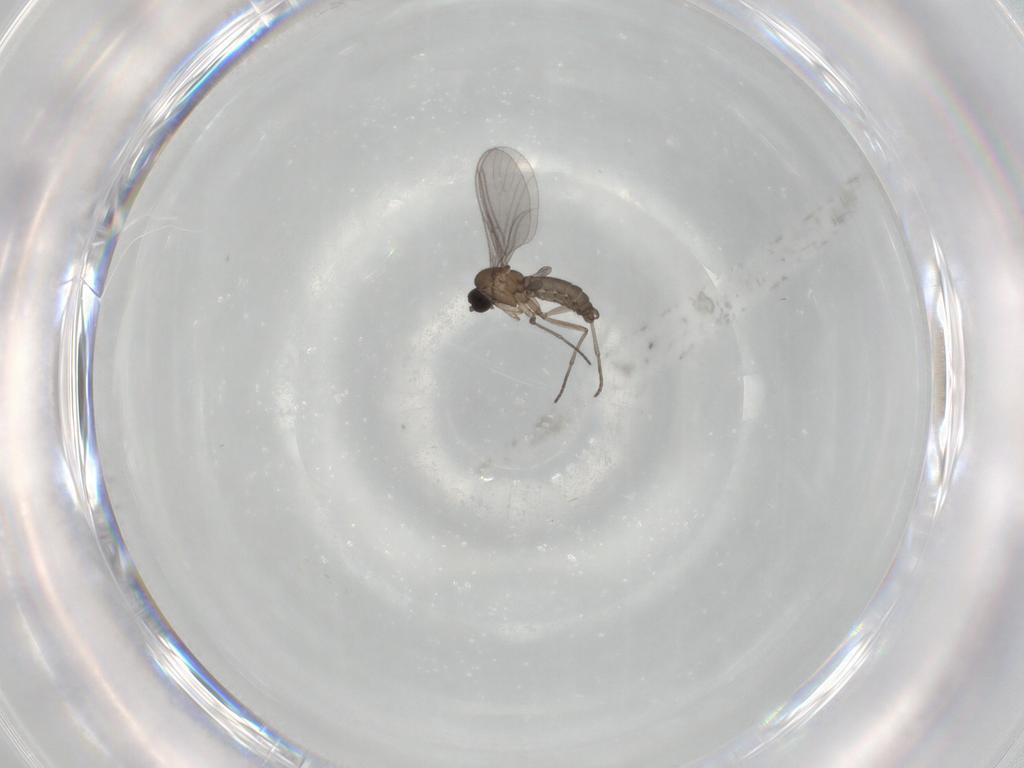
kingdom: Animalia
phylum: Arthropoda
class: Insecta
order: Diptera
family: Sciaridae
